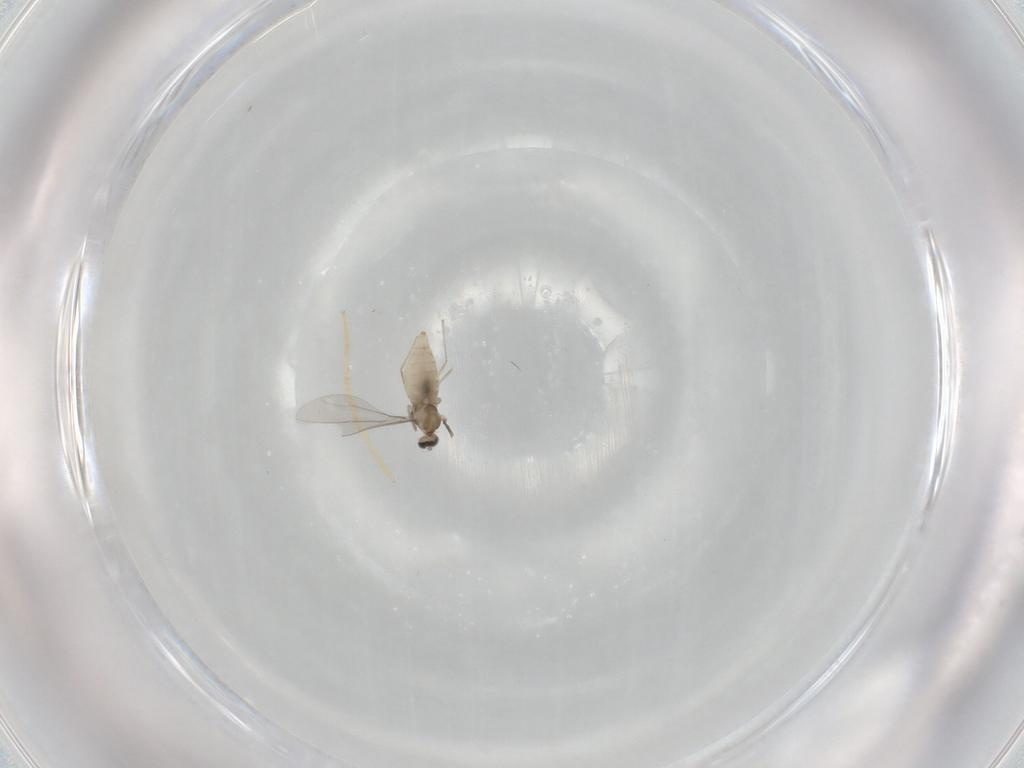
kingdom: Animalia
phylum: Arthropoda
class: Insecta
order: Diptera
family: Chironomidae
